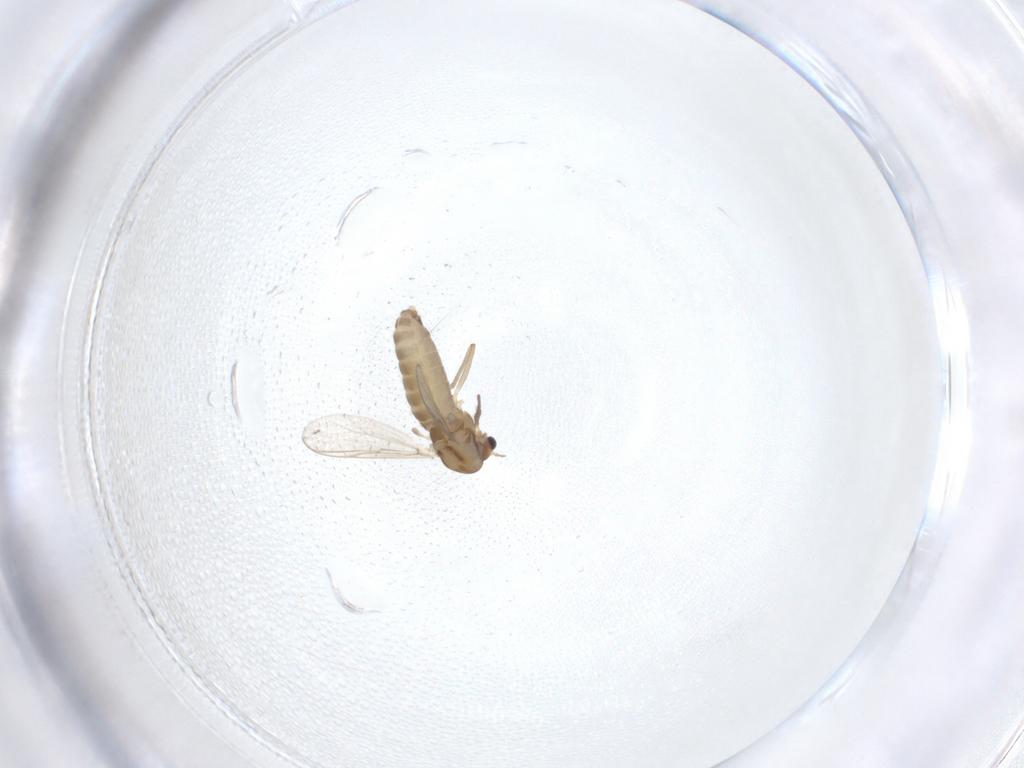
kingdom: Animalia
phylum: Arthropoda
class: Insecta
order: Diptera
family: Chironomidae
